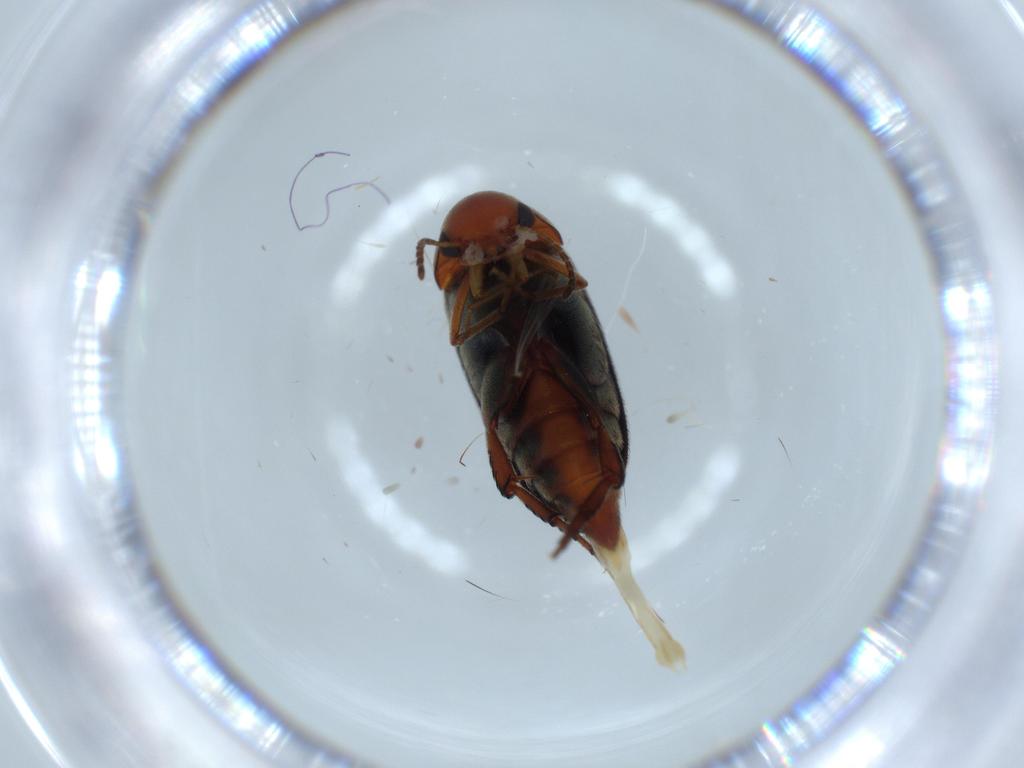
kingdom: Animalia
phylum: Arthropoda
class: Insecta
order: Coleoptera
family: Mordellidae
